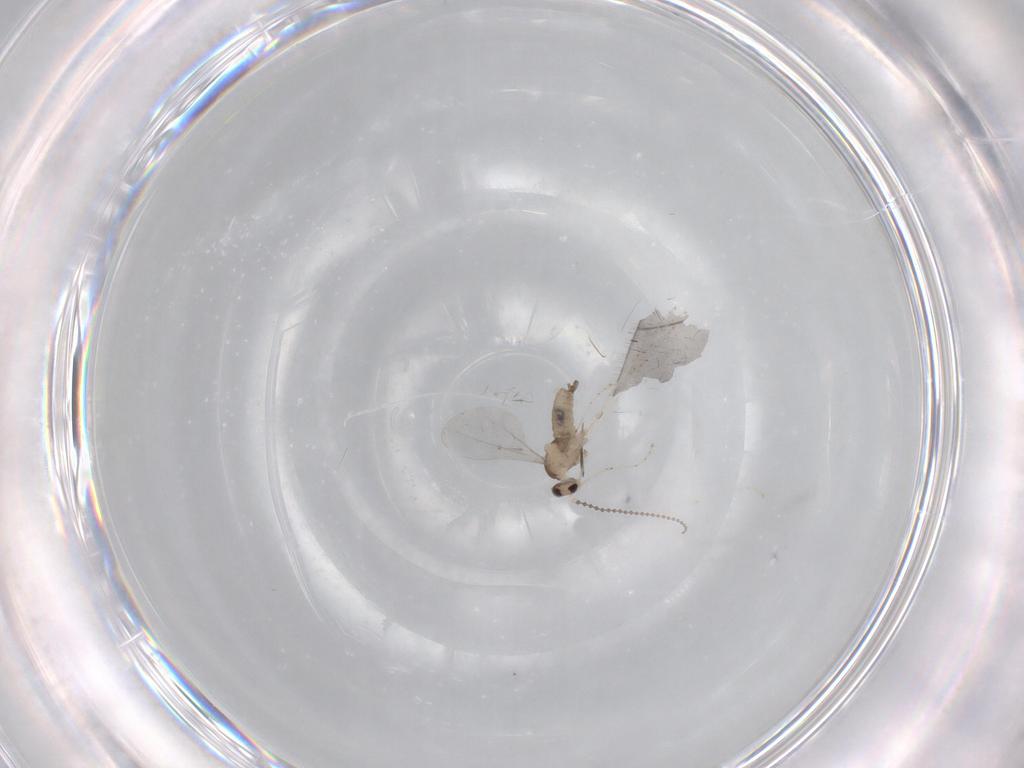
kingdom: Animalia
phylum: Arthropoda
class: Insecta
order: Diptera
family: Cecidomyiidae
